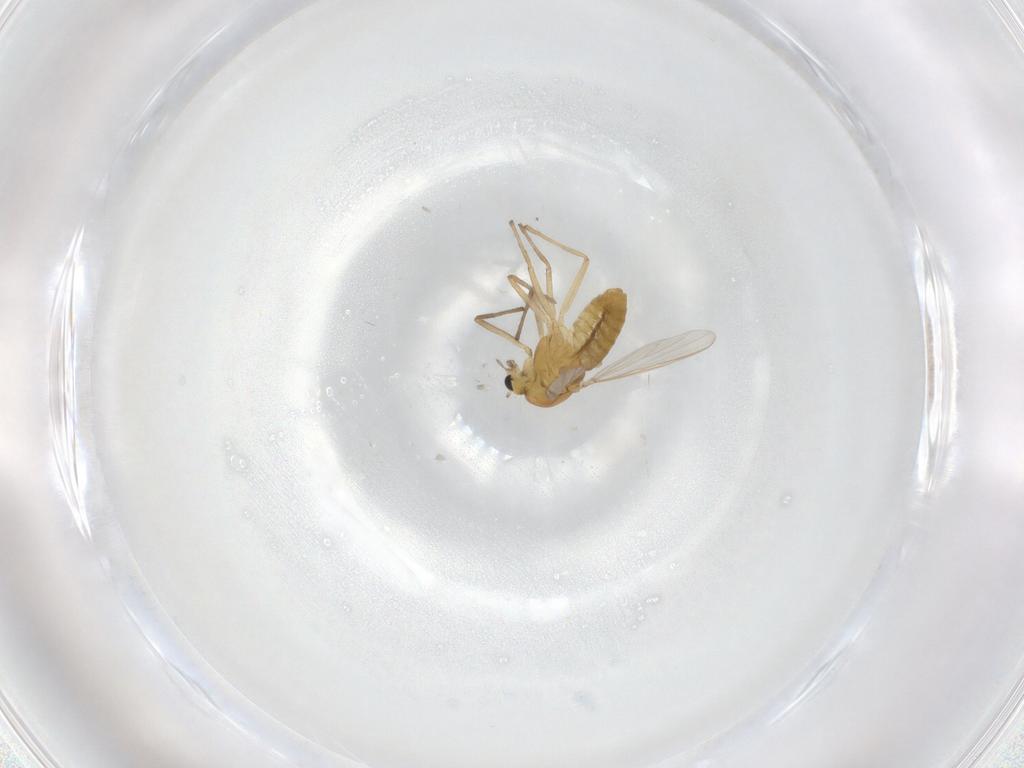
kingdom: Animalia
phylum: Arthropoda
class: Insecta
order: Diptera
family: Chironomidae
